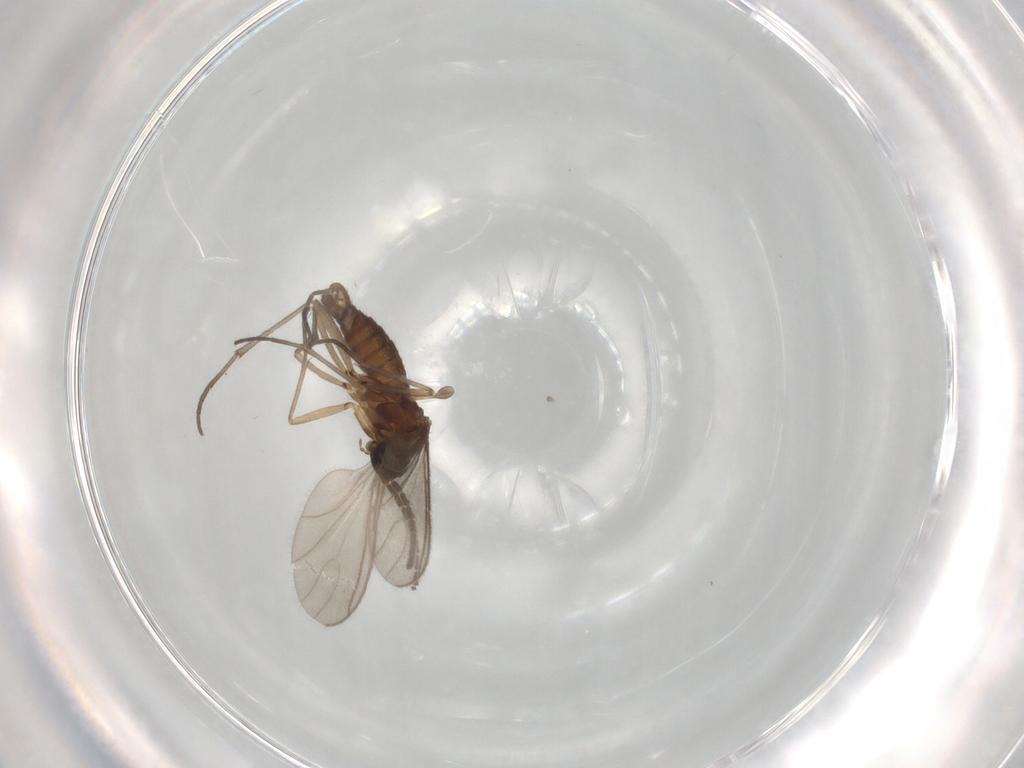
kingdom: Animalia
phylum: Arthropoda
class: Insecta
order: Diptera
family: Sciaridae
